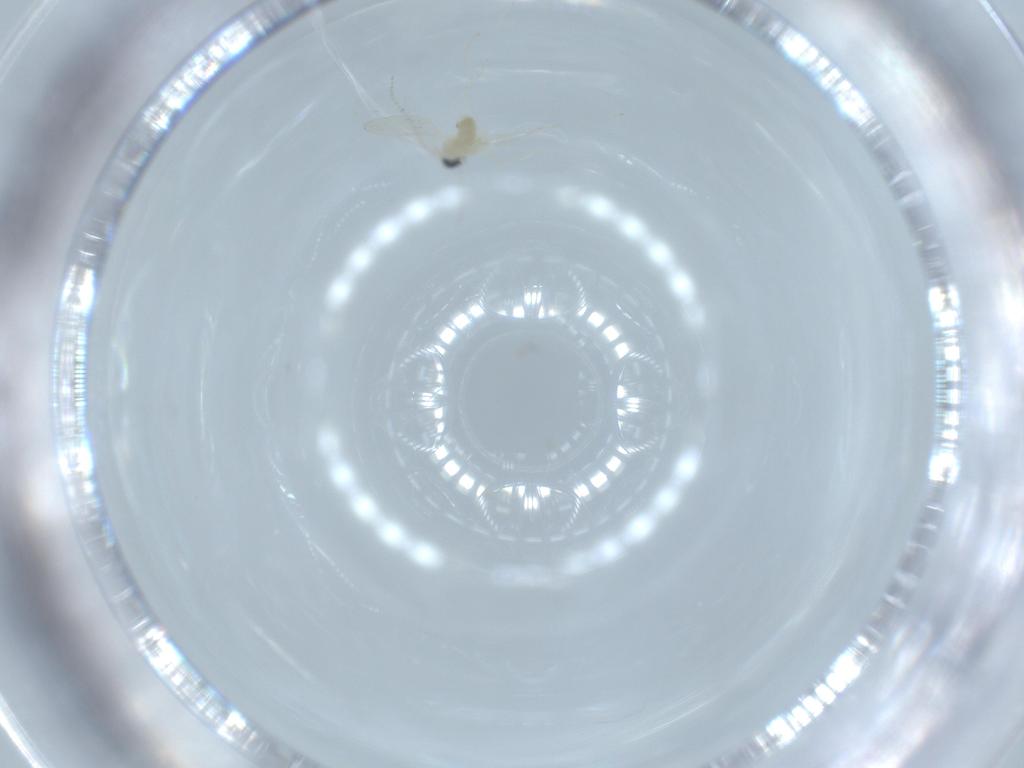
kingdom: Animalia
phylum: Arthropoda
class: Insecta
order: Diptera
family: Cecidomyiidae
